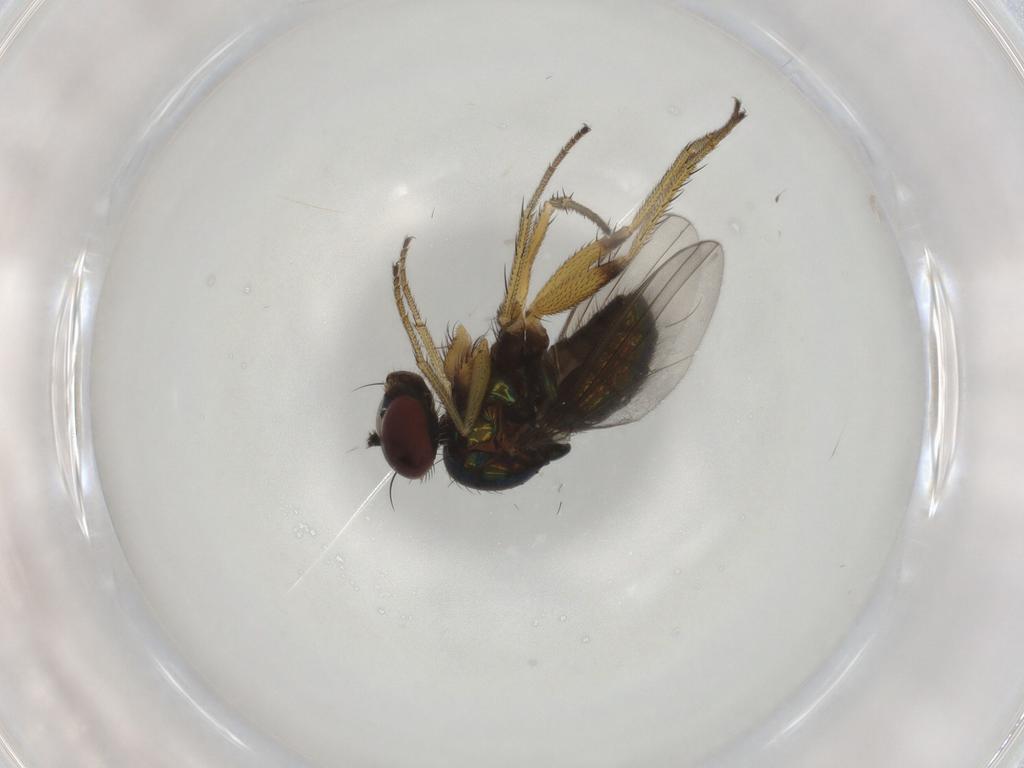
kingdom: Animalia
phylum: Arthropoda
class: Insecta
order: Diptera
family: Dolichopodidae
